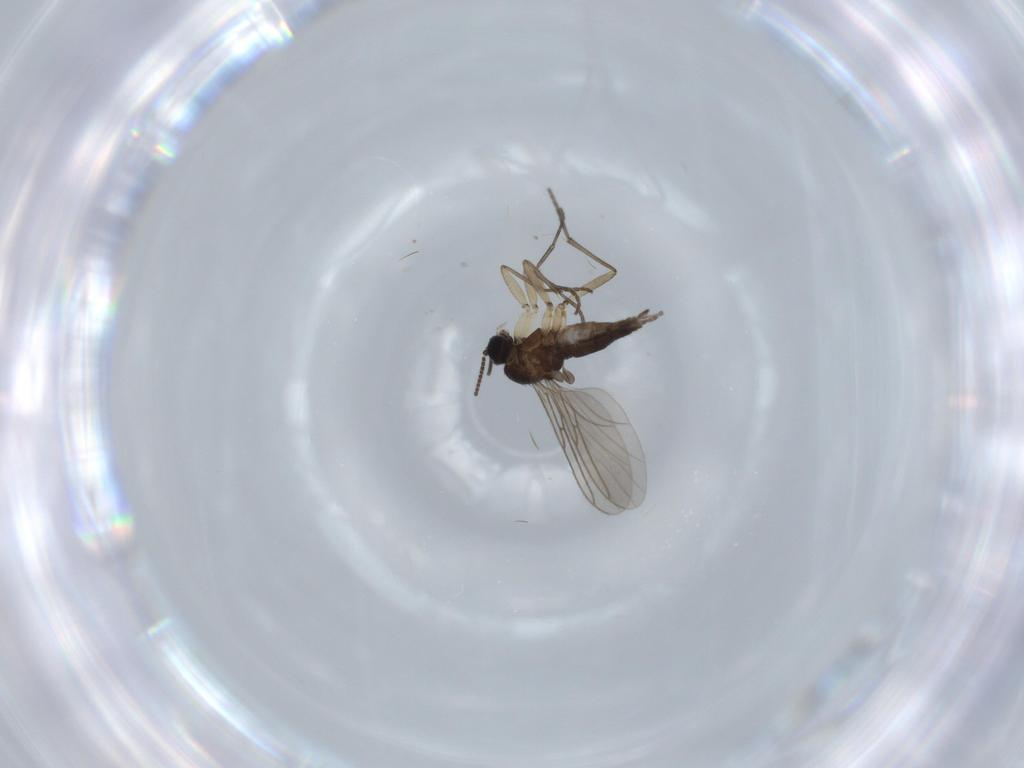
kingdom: Animalia
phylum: Arthropoda
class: Insecta
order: Diptera
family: Sciaridae
